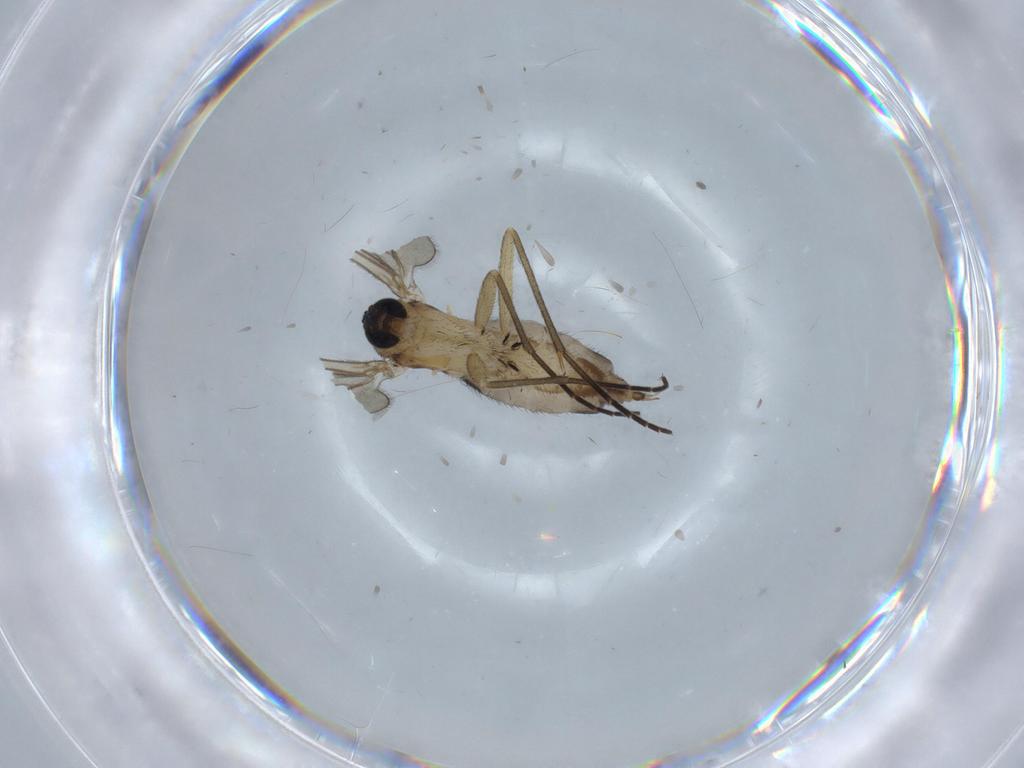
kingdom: Animalia
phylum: Arthropoda
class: Insecta
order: Diptera
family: Sciaridae
